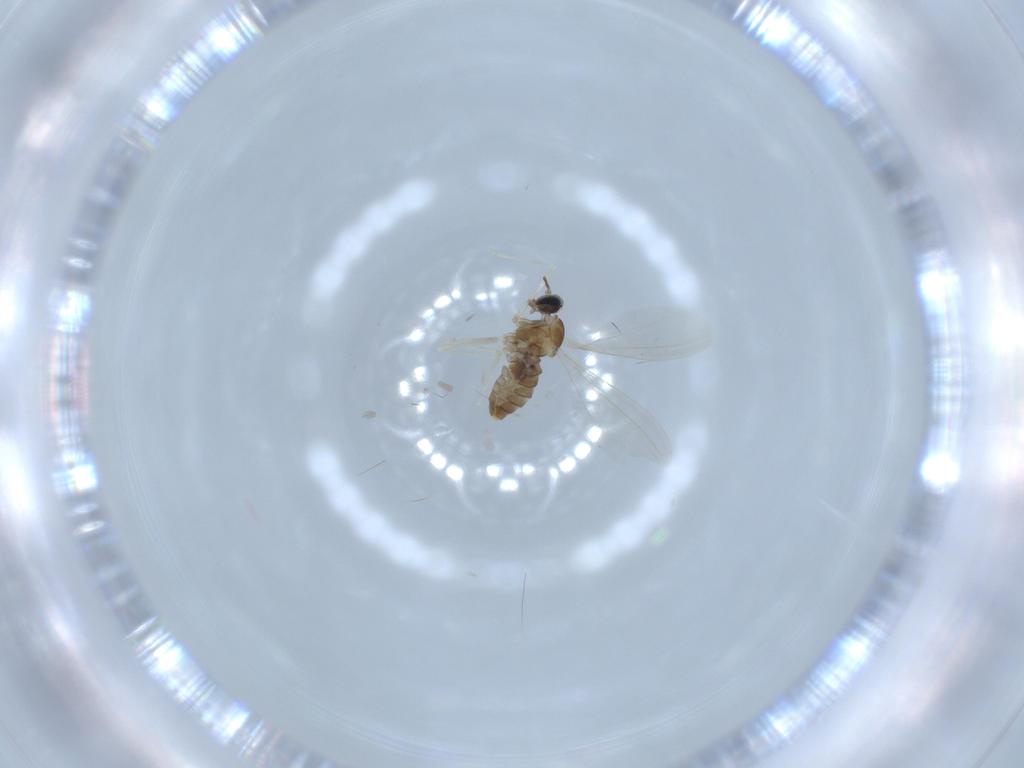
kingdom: Animalia
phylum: Arthropoda
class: Insecta
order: Diptera
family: Cecidomyiidae
